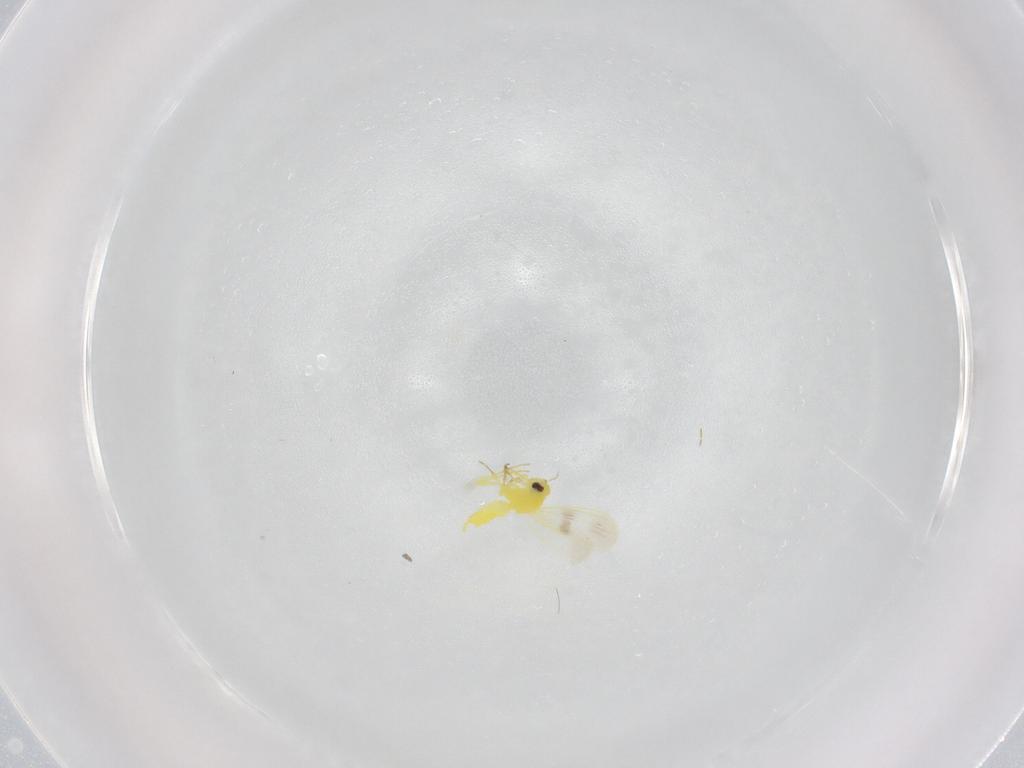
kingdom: Animalia
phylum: Arthropoda
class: Insecta
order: Hemiptera
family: Aleyrodidae
